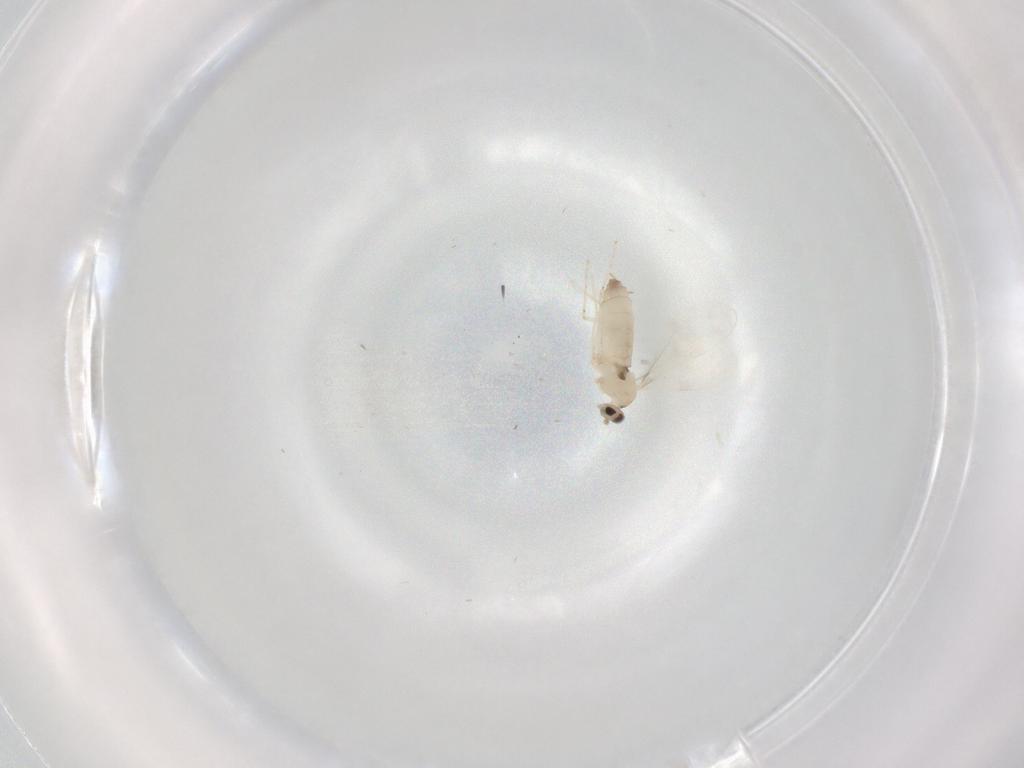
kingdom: Animalia
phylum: Arthropoda
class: Insecta
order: Diptera
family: Cecidomyiidae
